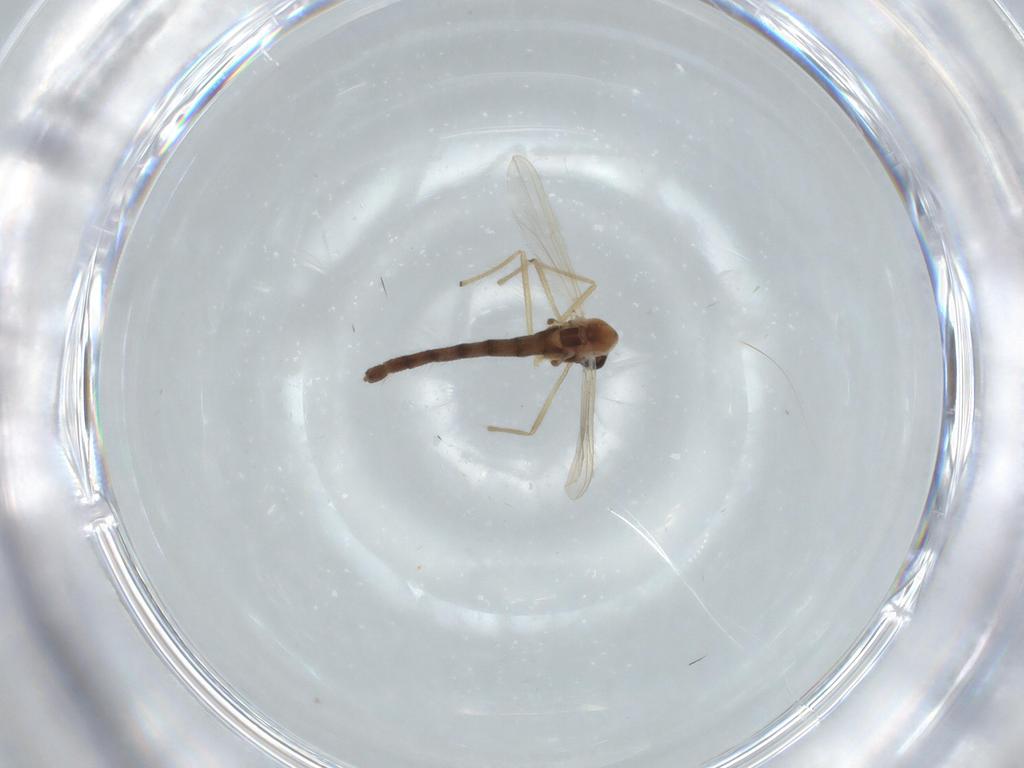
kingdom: Animalia
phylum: Arthropoda
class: Insecta
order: Diptera
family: Chironomidae
